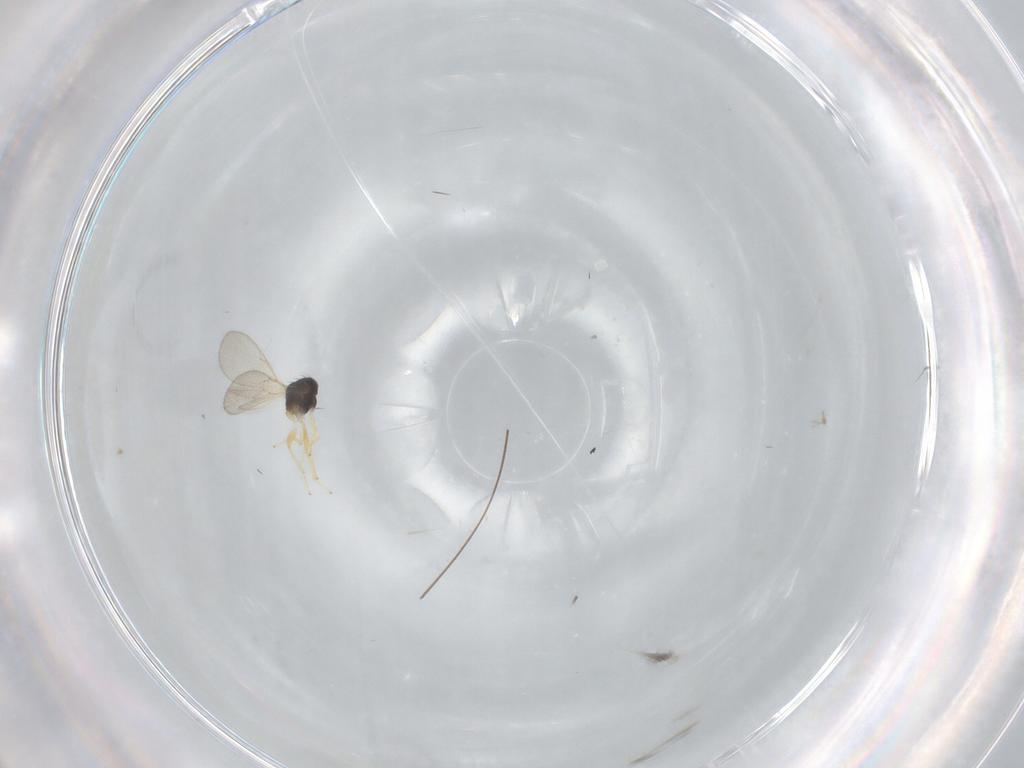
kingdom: Animalia
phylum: Arthropoda
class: Insecta
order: Hymenoptera
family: Eulophidae
